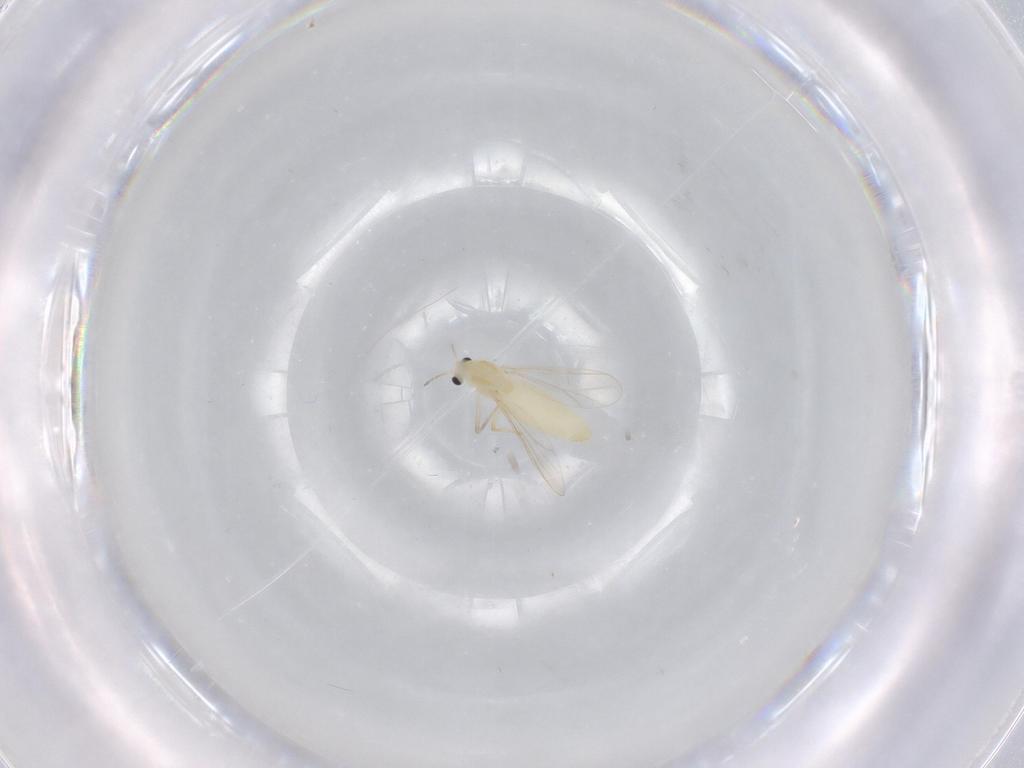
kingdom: Animalia
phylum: Arthropoda
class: Insecta
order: Diptera
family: Chironomidae
